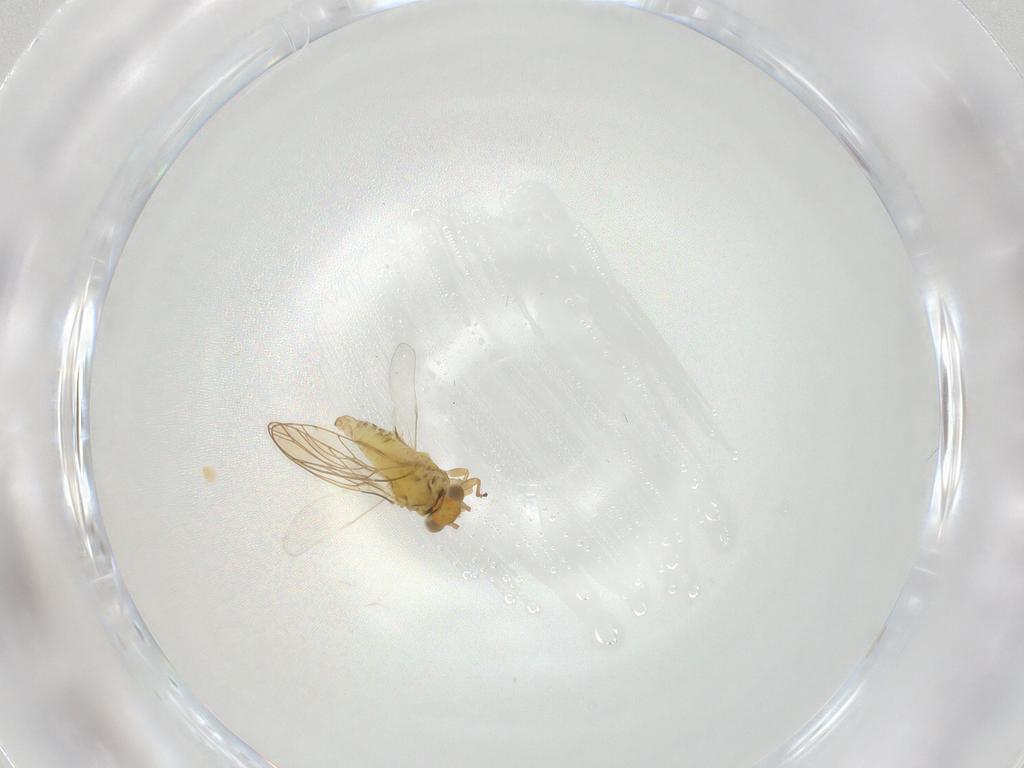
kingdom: Animalia
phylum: Arthropoda
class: Insecta
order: Hemiptera
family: Psylloidea_incertae_sedis
